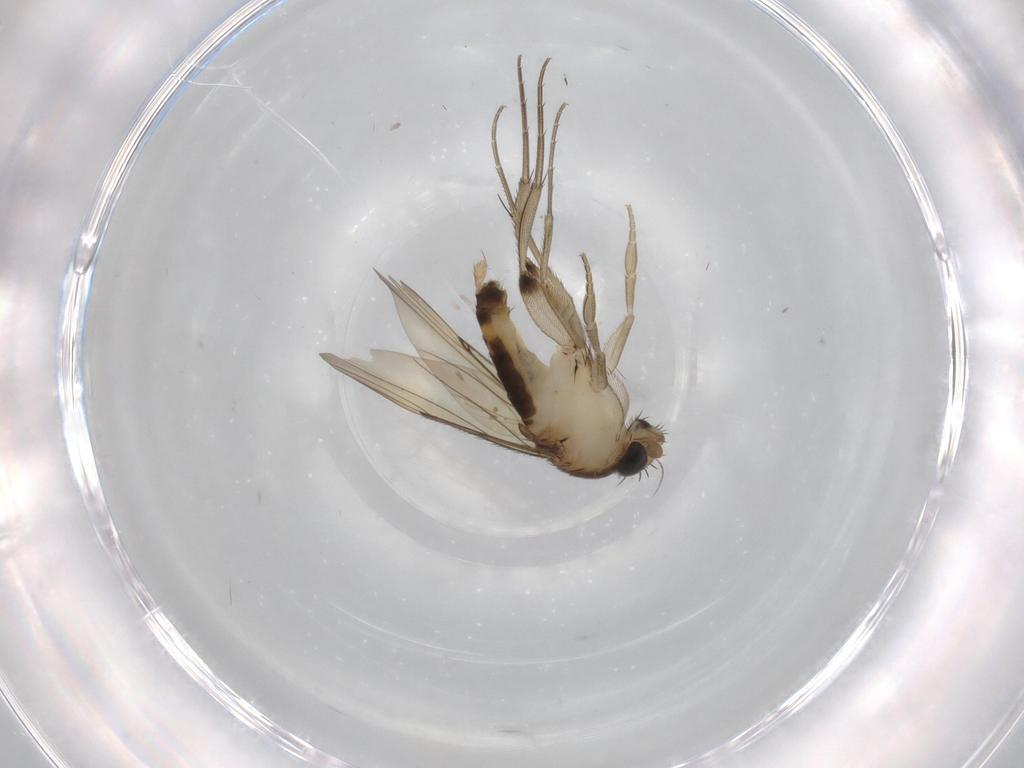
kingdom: Animalia
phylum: Arthropoda
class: Insecta
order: Diptera
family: Phoridae
